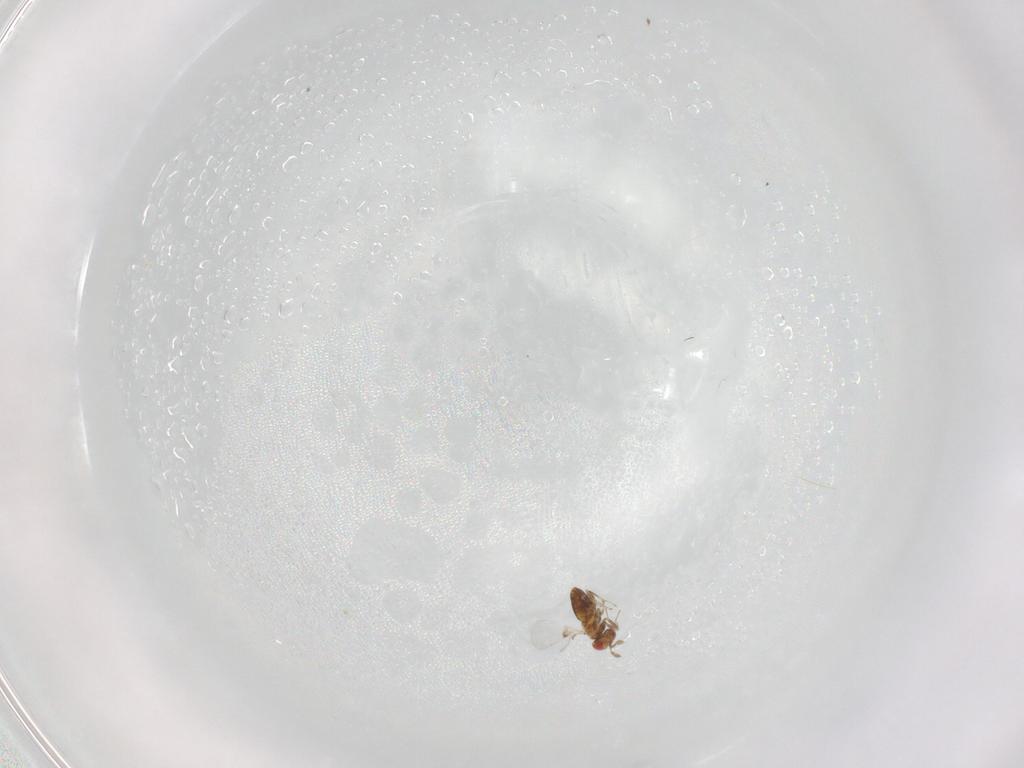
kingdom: Animalia
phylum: Arthropoda
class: Insecta
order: Hymenoptera
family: Trichogrammatidae
